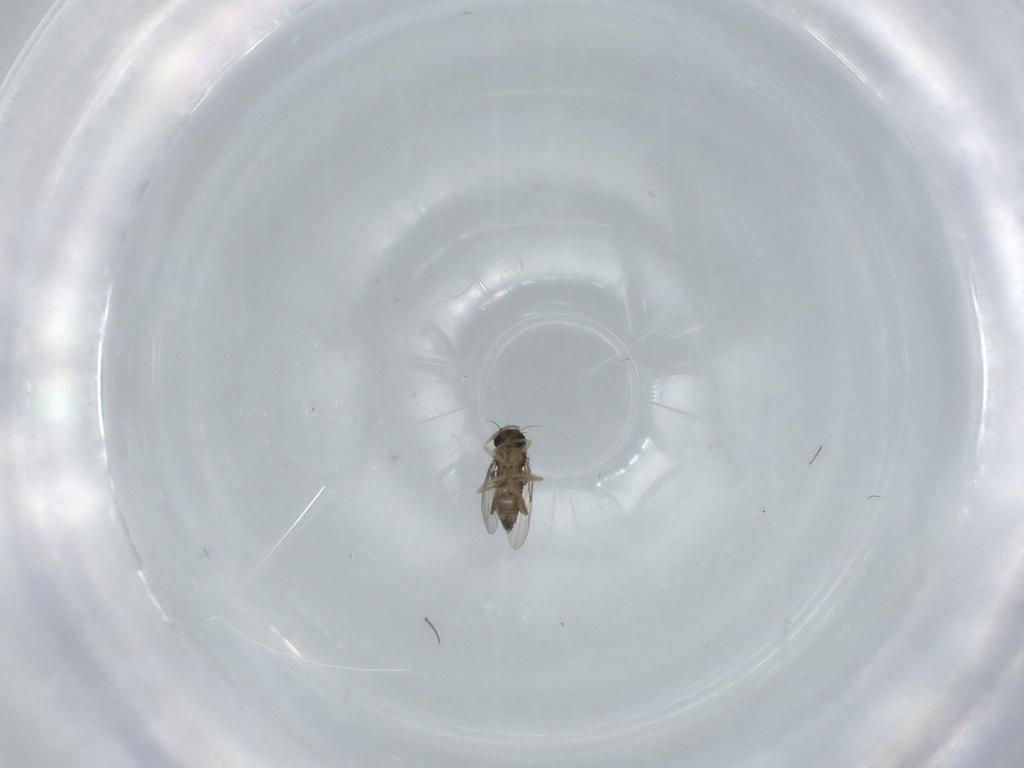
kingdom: Animalia
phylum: Arthropoda
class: Insecta
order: Diptera
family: Phoridae
